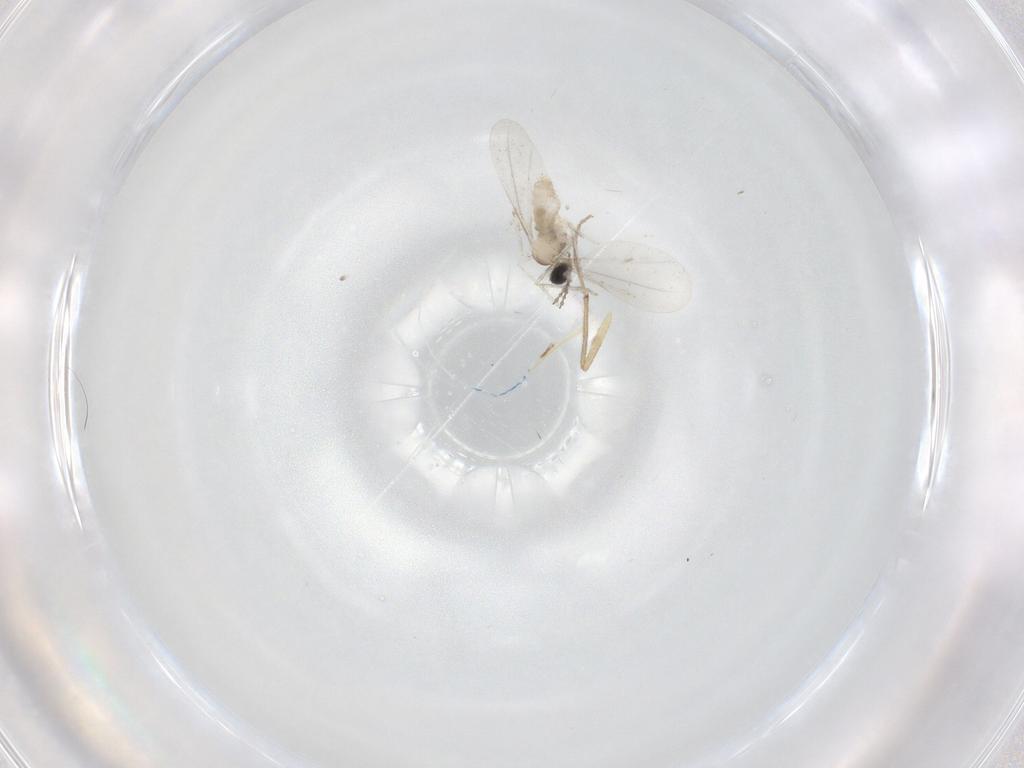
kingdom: Animalia
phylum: Arthropoda
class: Insecta
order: Diptera
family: Cecidomyiidae
